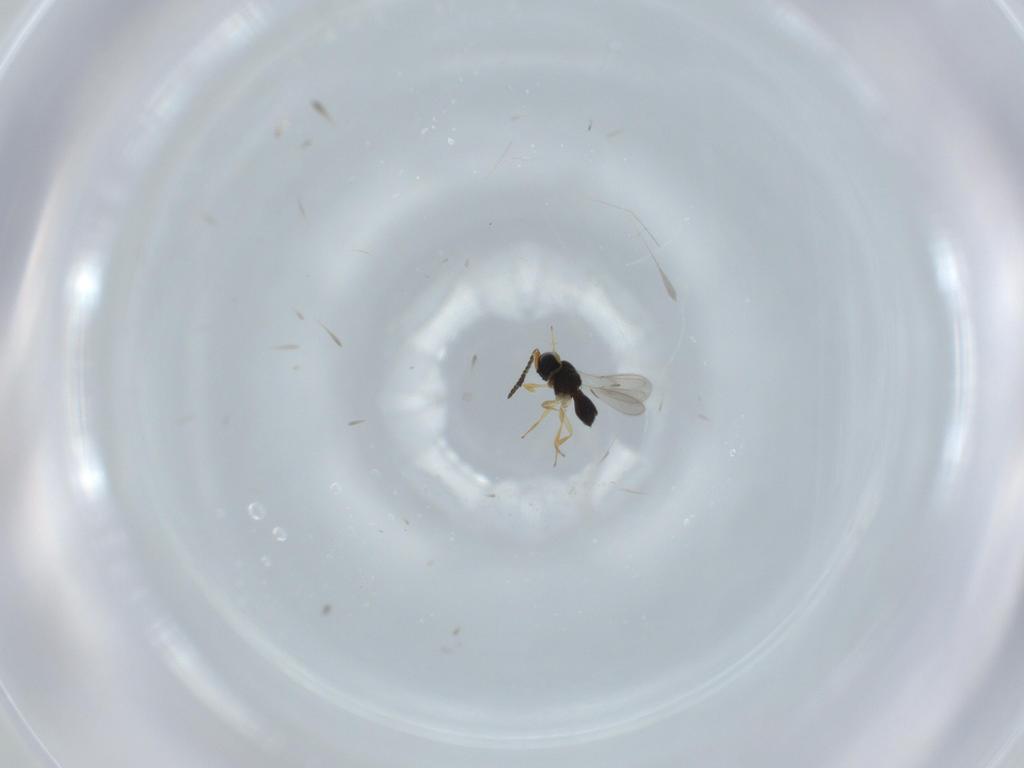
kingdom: Animalia
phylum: Arthropoda
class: Insecta
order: Hymenoptera
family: Scelionidae
